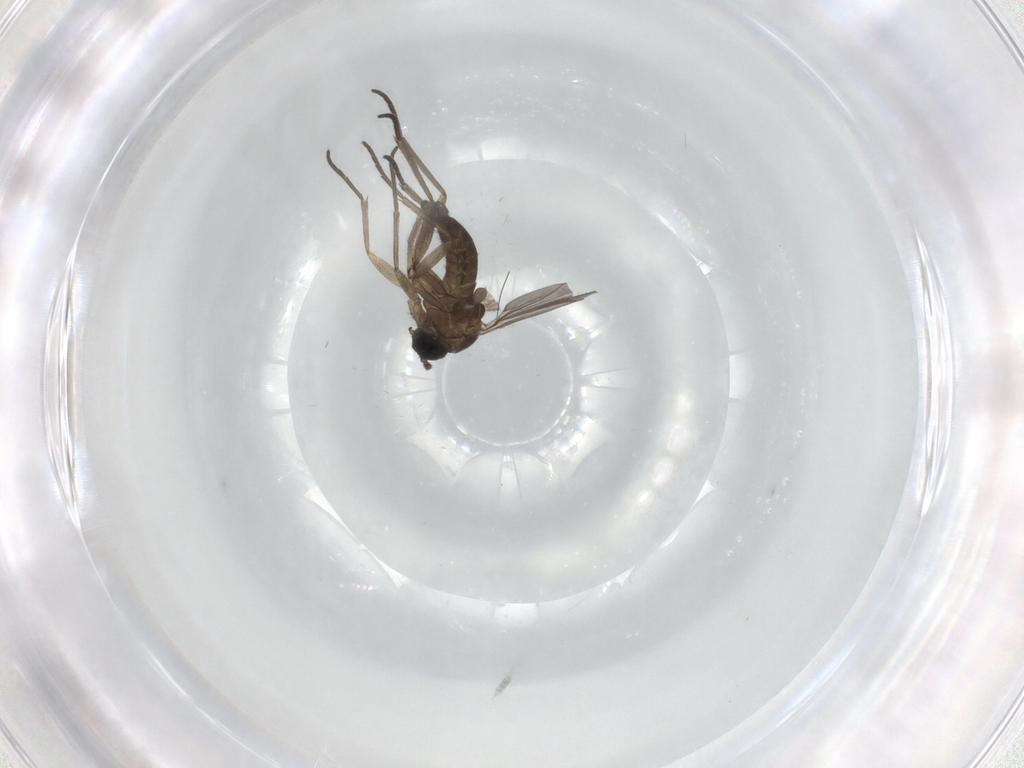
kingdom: Animalia
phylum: Arthropoda
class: Insecta
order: Diptera
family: Sciaridae
